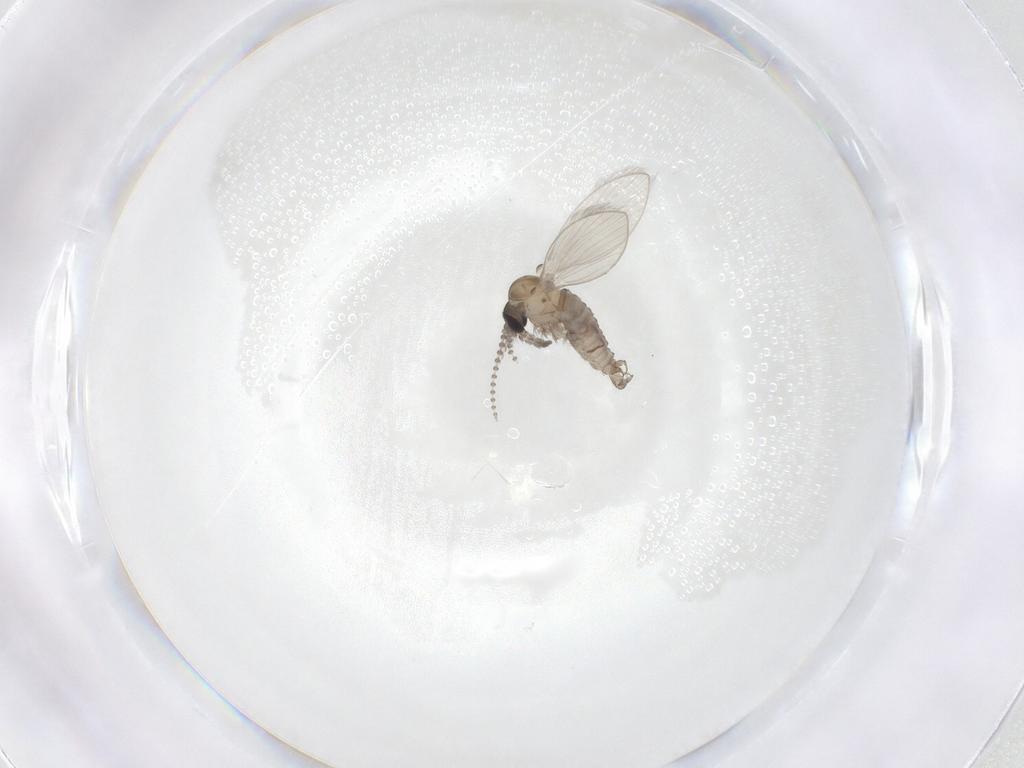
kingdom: Animalia
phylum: Arthropoda
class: Insecta
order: Diptera
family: Psychodidae
